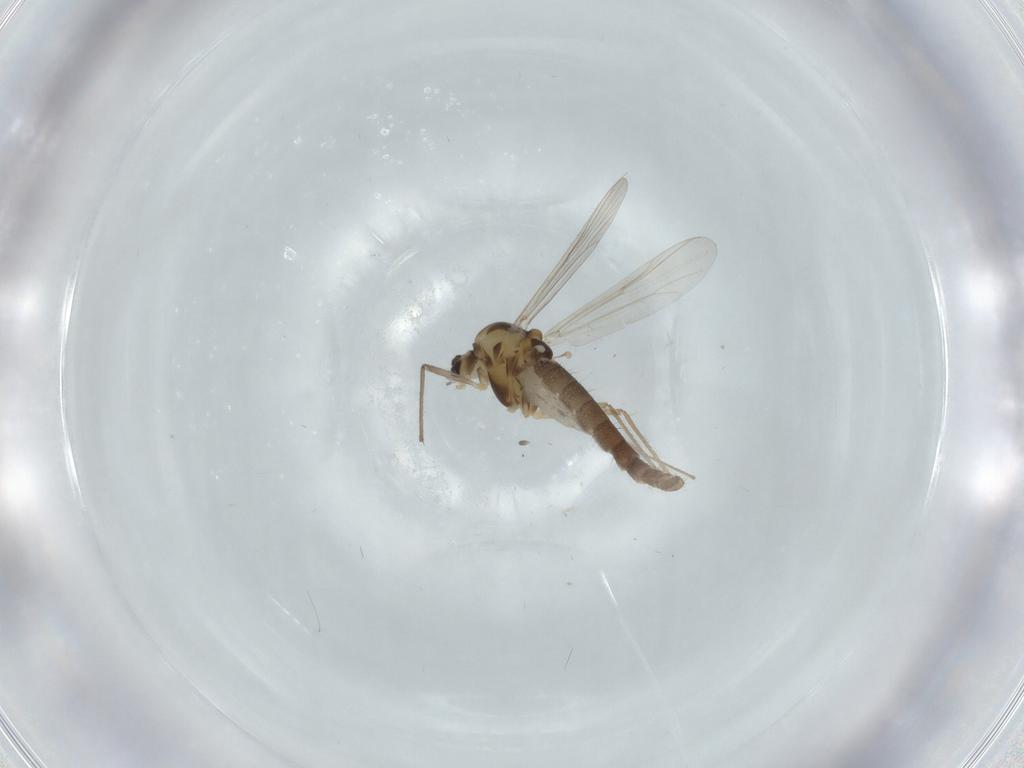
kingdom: Animalia
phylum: Arthropoda
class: Insecta
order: Diptera
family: Chironomidae
